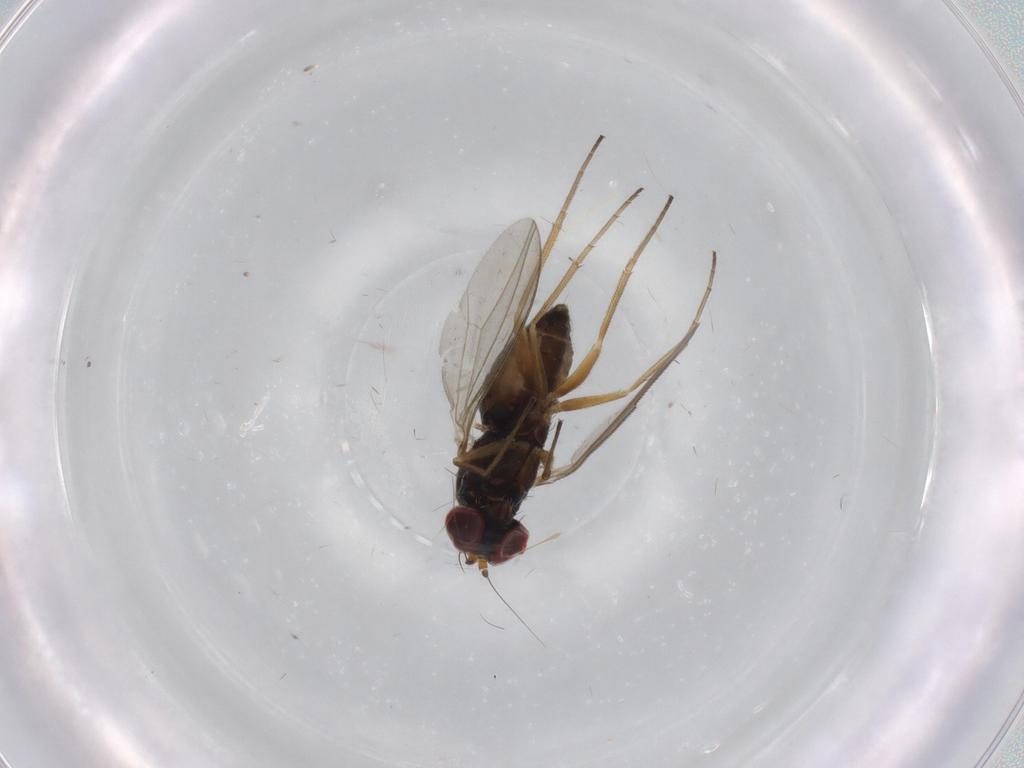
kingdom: Animalia
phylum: Arthropoda
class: Insecta
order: Diptera
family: Dolichopodidae
